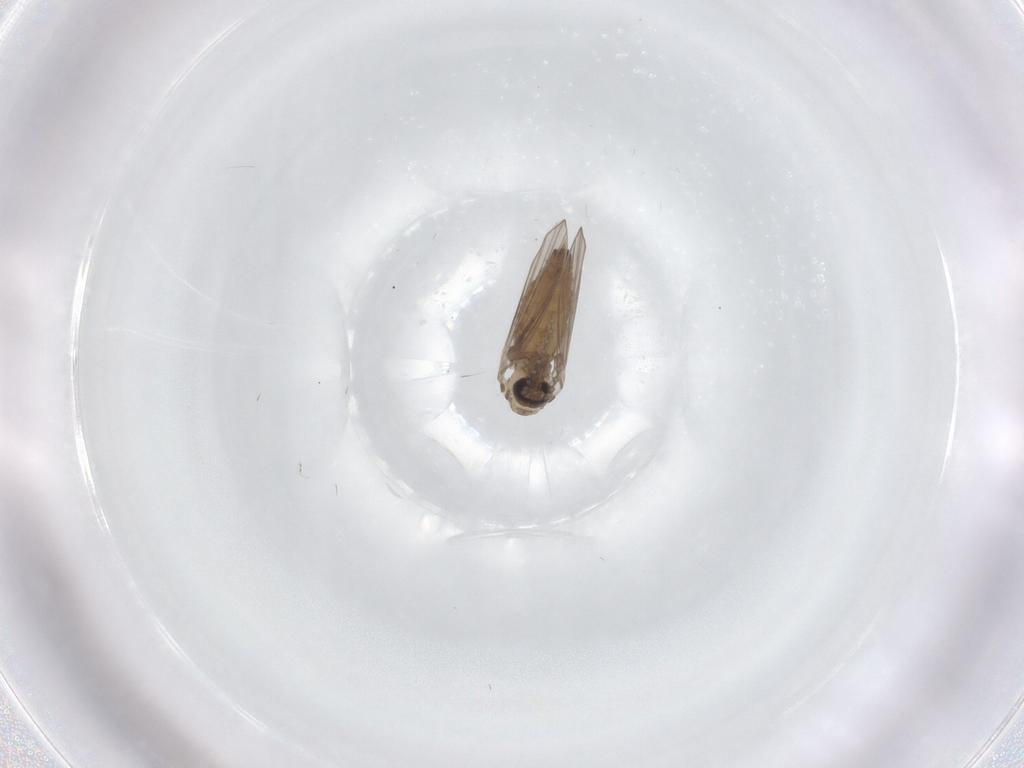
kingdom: Animalia
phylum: Arthropoda
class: Insecta
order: Diptera
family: Psychodidae
